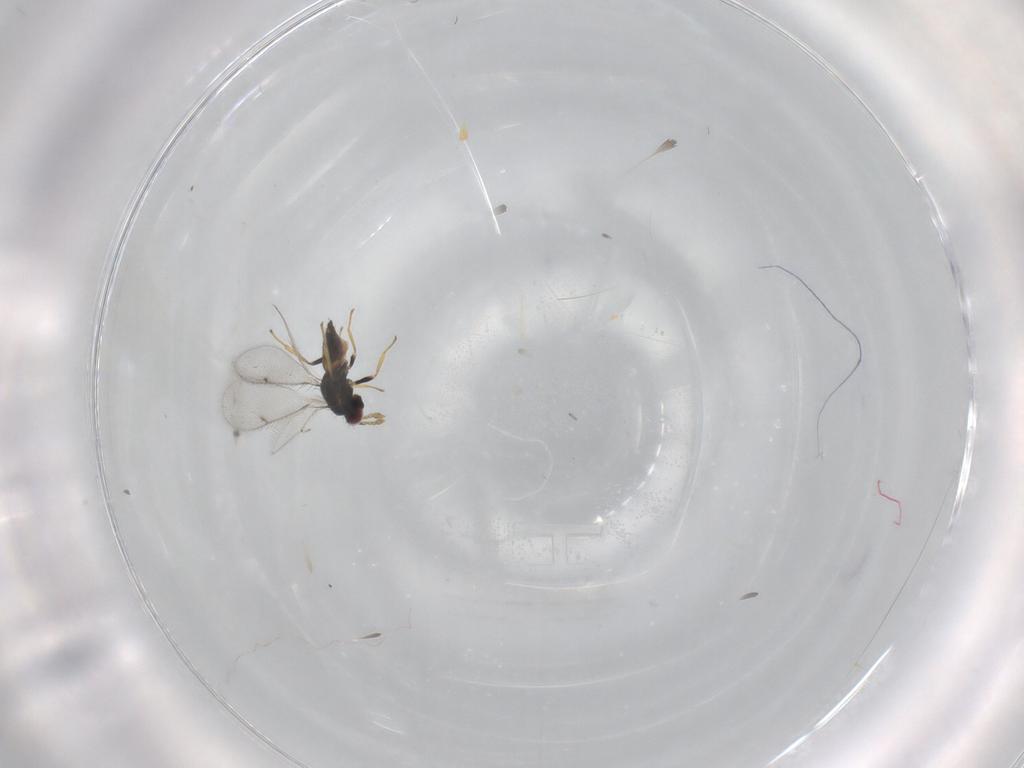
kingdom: Animalia
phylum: Arthropoda
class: Insecta
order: Hymenoptera
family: Eulophidae
